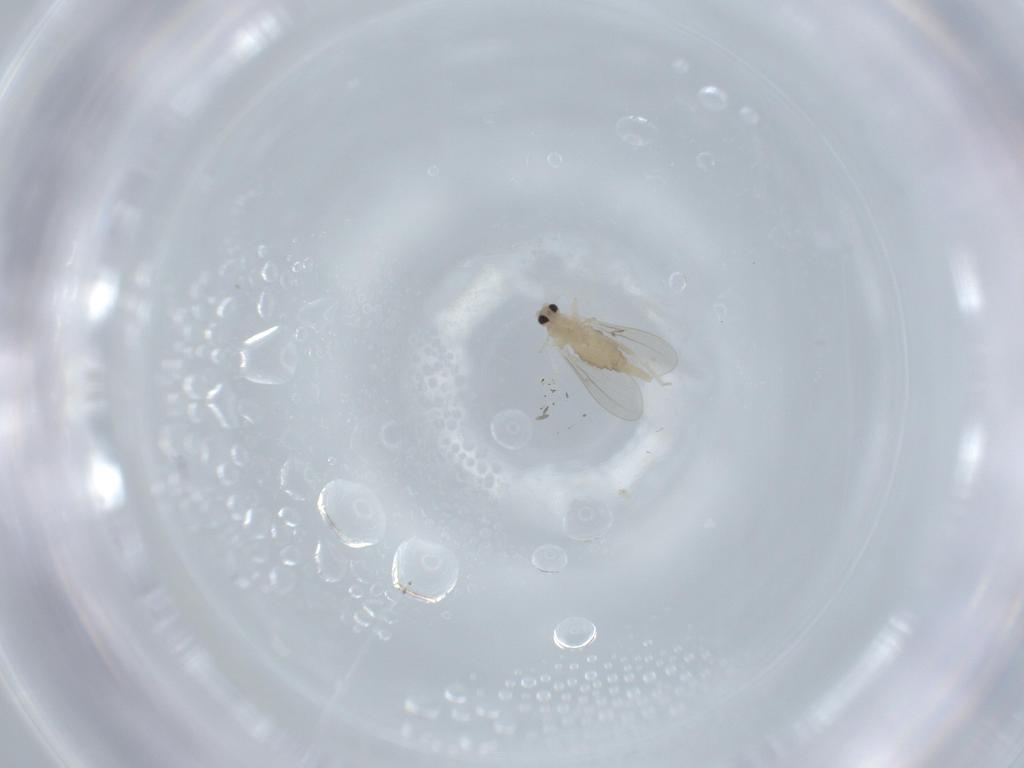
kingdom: Animalia
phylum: Arthropoda
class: Insecta
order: Diptera
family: Cecidomyiidae
